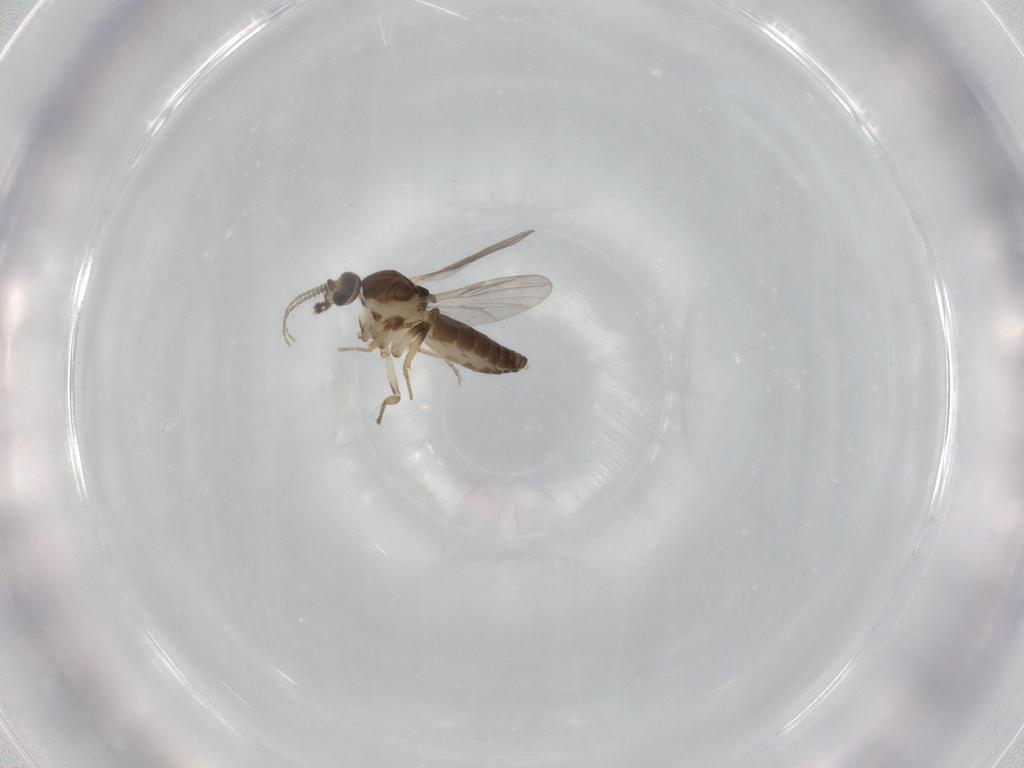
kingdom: Animalia
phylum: Arthropoda
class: Insecta
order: Diptera
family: Ceratopogonidae
